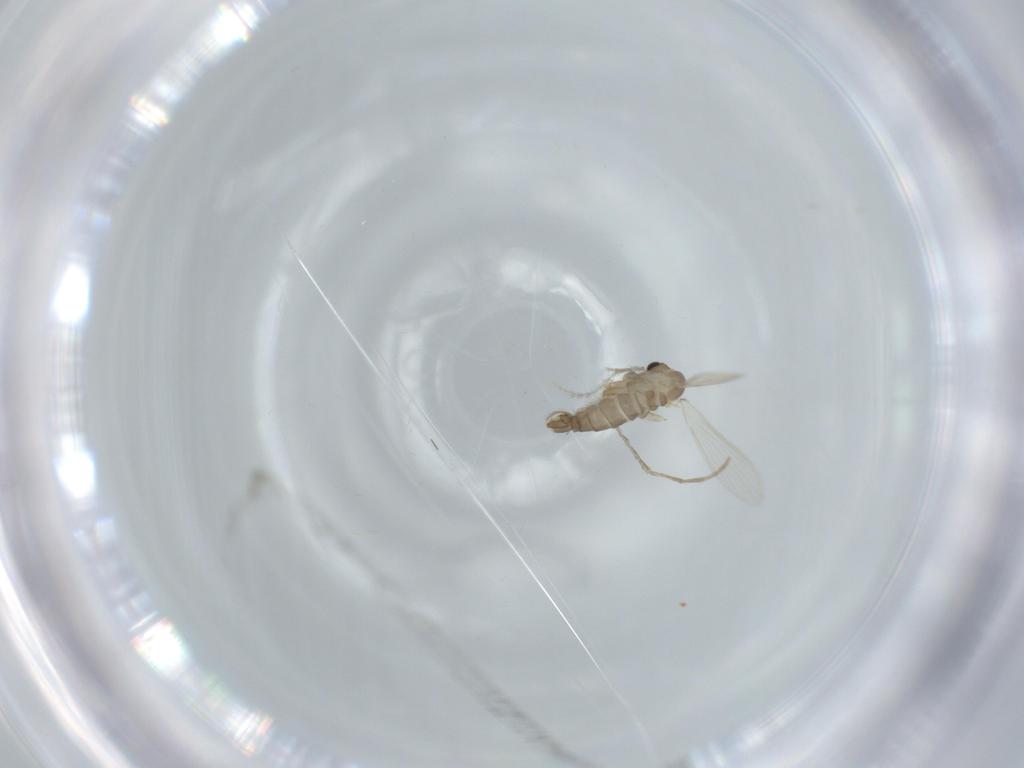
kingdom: Animalia
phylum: Arthropoda
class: Insecta
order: Diptera
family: Psychodidae
